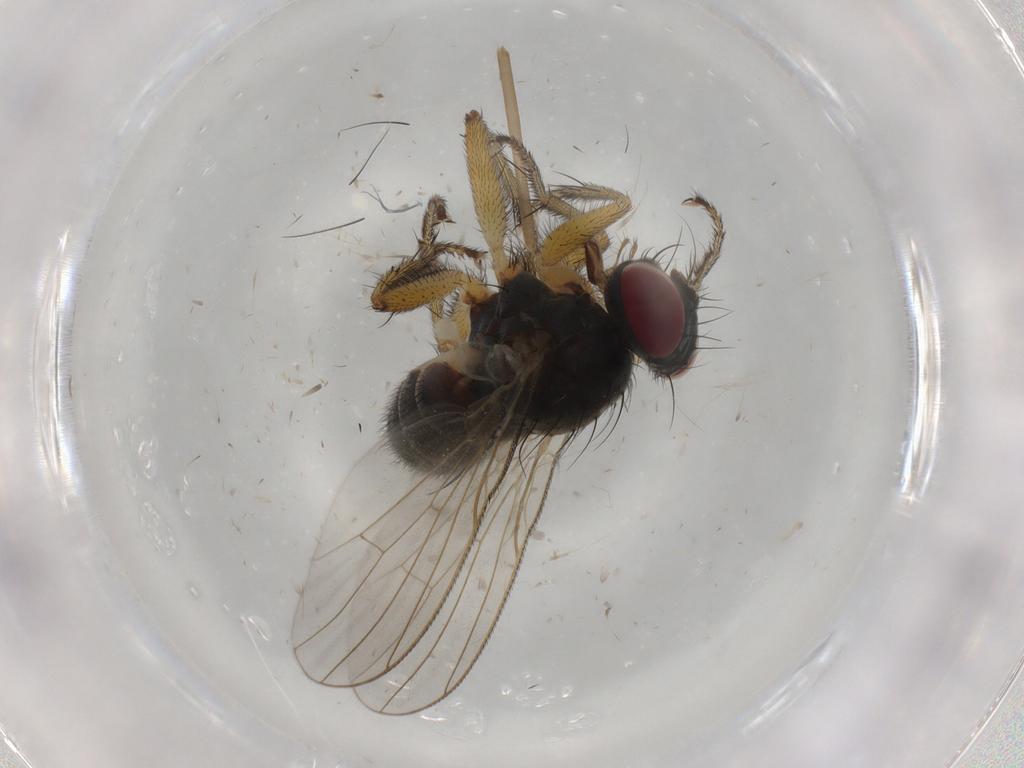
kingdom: Animalia
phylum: Arthropoda
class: Insecta
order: Diptera
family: Muscidae
